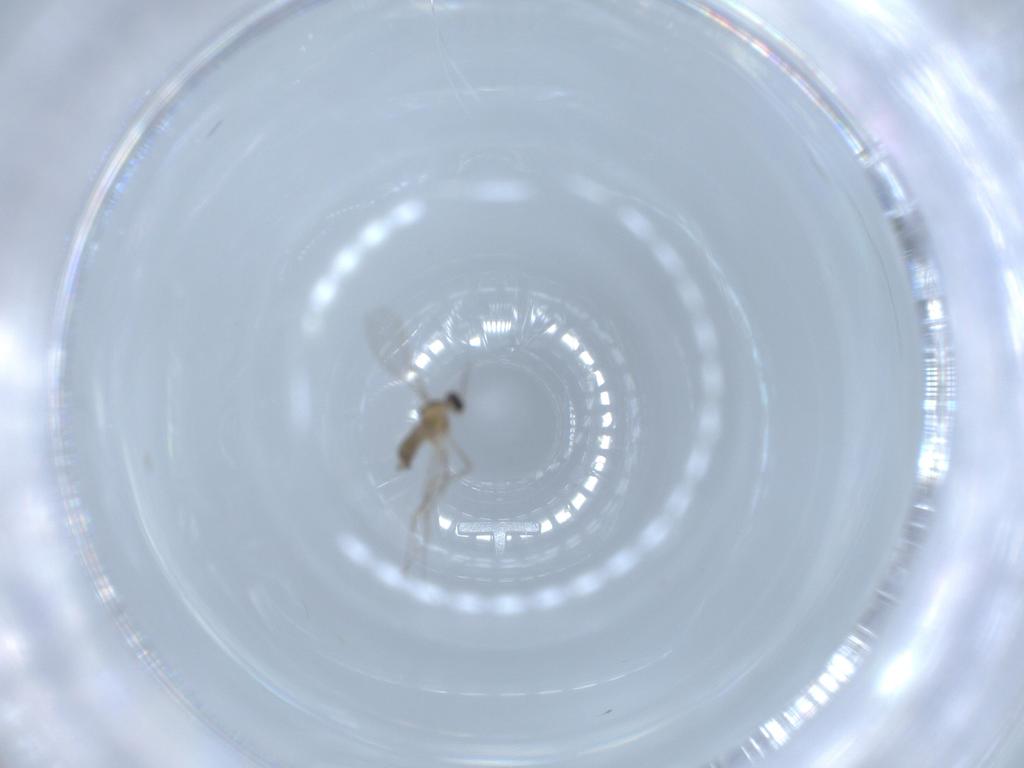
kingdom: Animalia
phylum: Arthropoda
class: Insecta
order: Diptera
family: Cecidomyiidae
